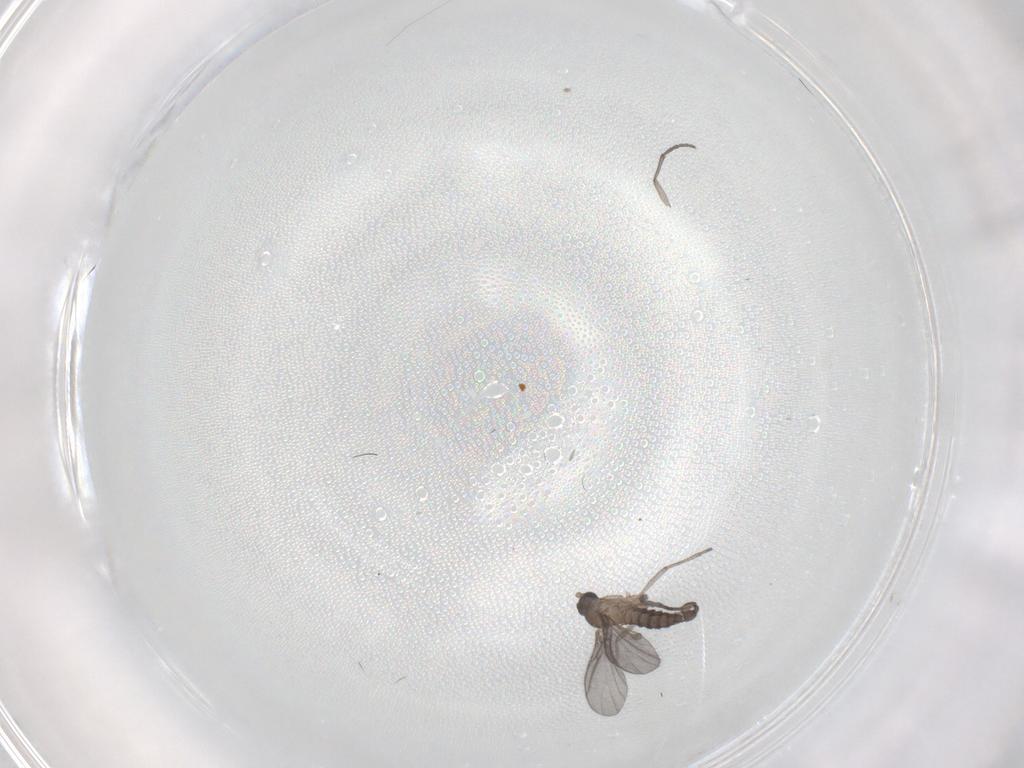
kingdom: Animalia
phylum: Arthropoda
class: Insecta
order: Diptera
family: Sciaridae
